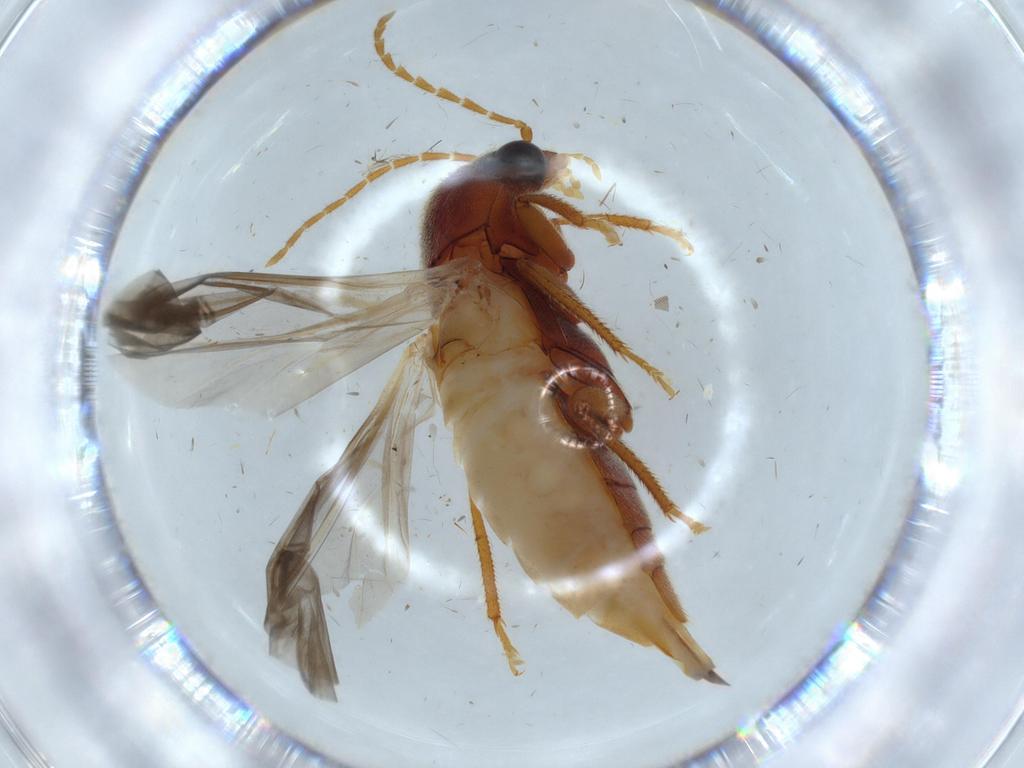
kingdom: Animalia
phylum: Arthropoda
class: Insecta
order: Coleoptera
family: Ptilodactylidae
